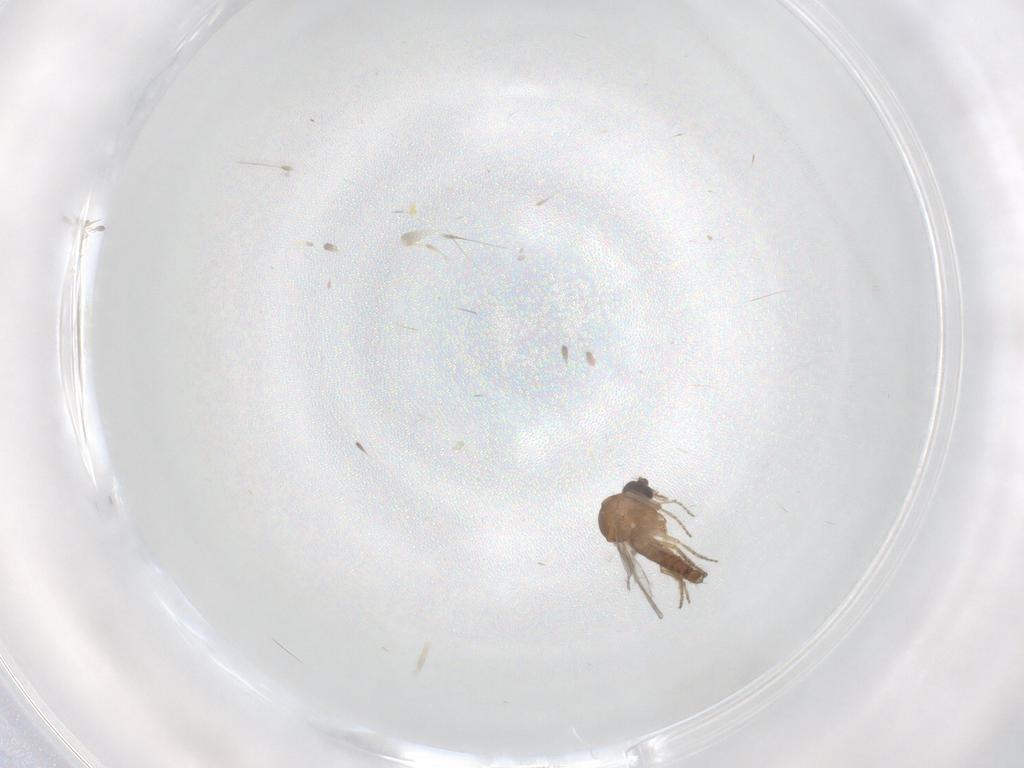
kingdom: Animalia
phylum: Arthropoda
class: Insecta
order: Diptera
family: Ceratopogonidae
